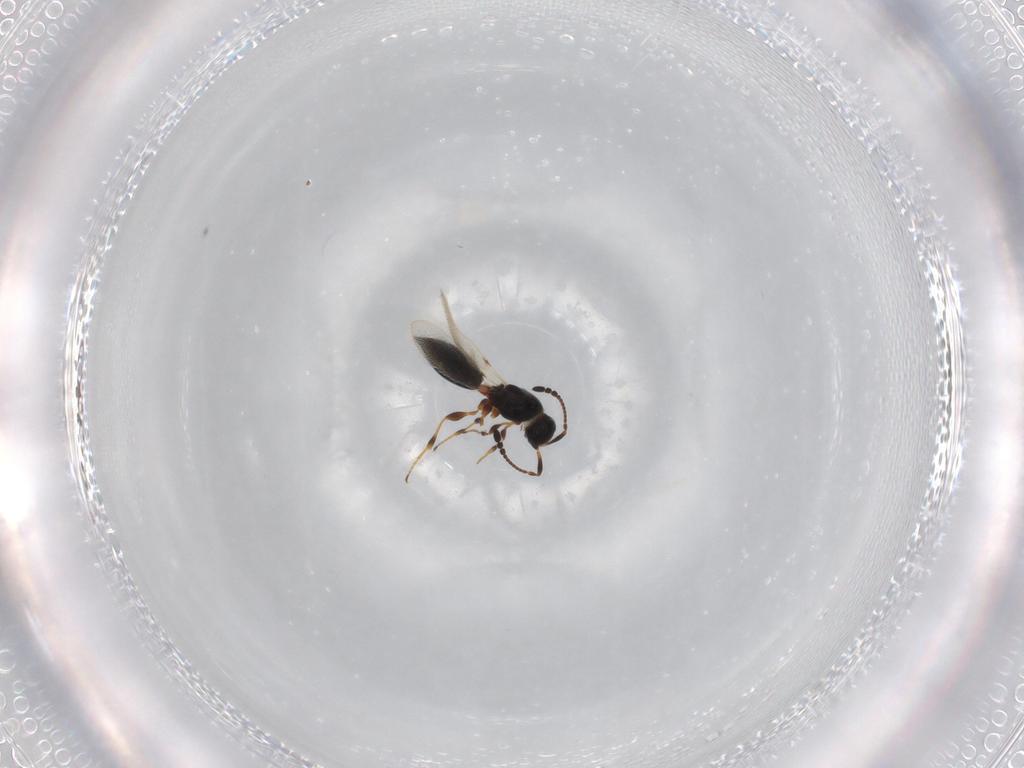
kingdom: Animalia
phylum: Arthropoda
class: Insecta
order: Hymenoptera
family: Diapriidae
